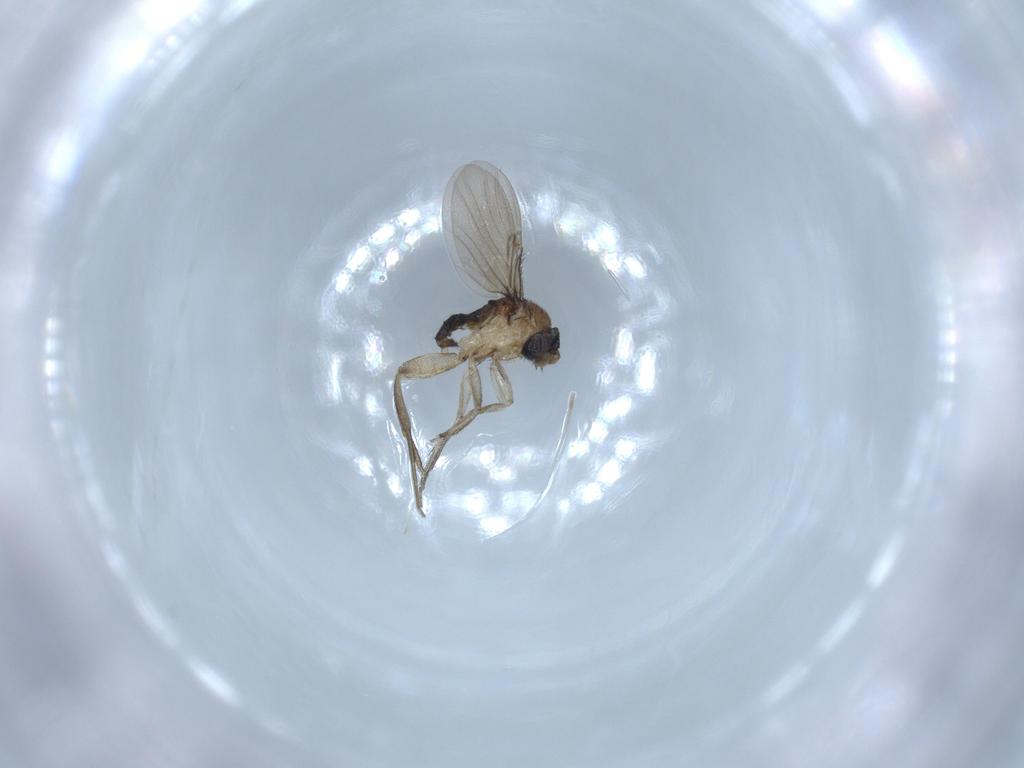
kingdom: Animalia
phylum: Arthropoda
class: Insecta
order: Diptera
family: Phoridae
